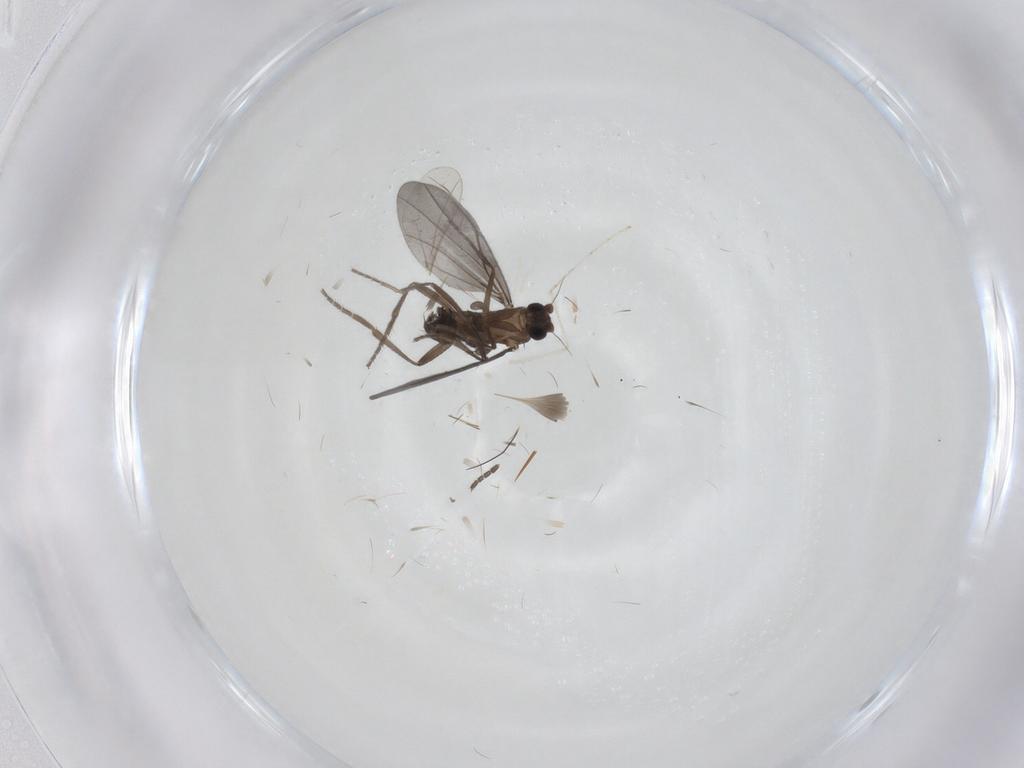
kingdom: Animalia
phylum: Arthropoda
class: Insecta
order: Diptera
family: Phoridae
